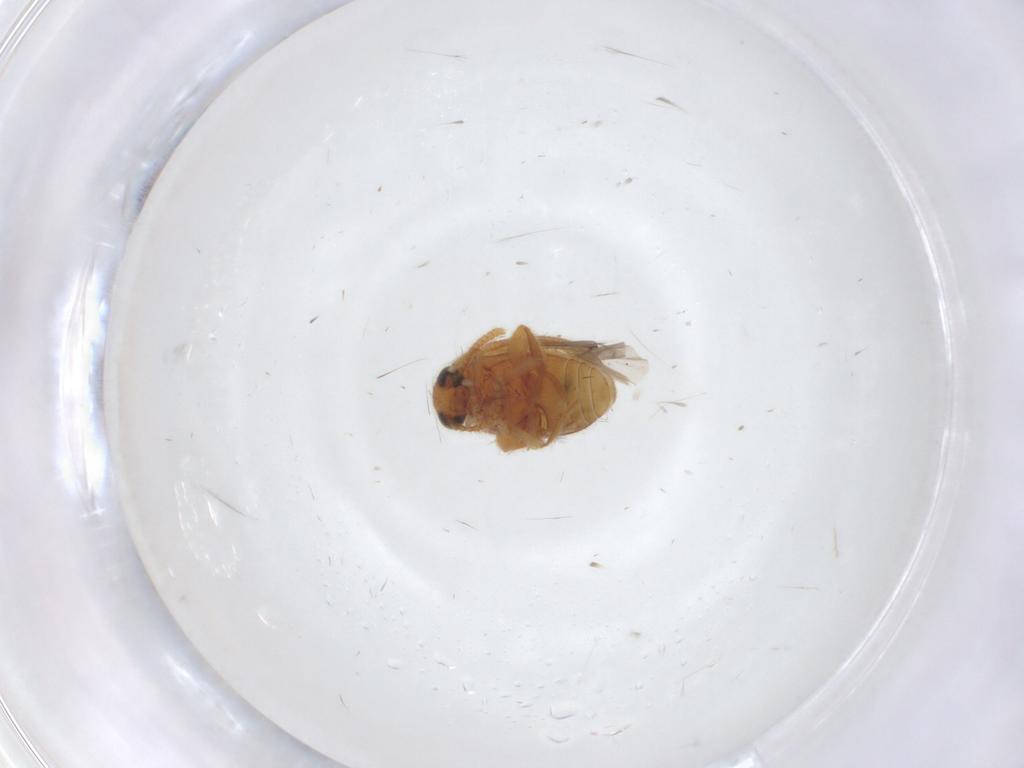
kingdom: Animalia
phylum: Arthropoda
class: Insecta
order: Coleoptera
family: Aderidae
